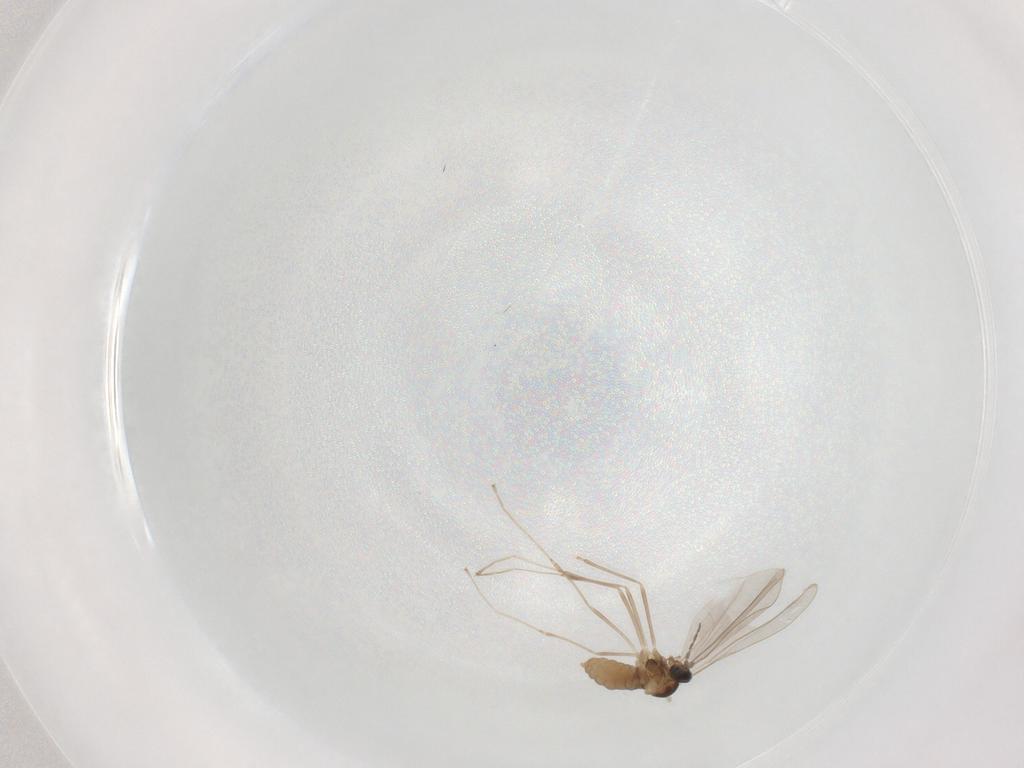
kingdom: Animalia
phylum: Arthropoda
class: Insecta
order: Diptera
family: Cecidomyiidae
